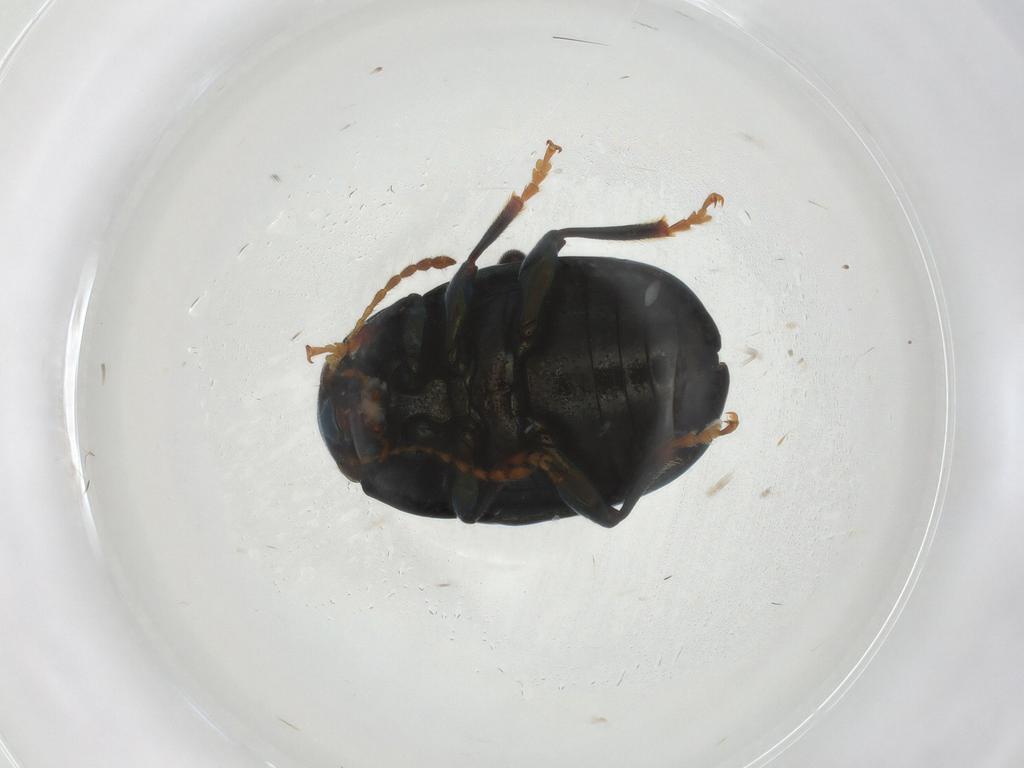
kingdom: Animalia
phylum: Arthropoda
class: Insecta
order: Coleoptera
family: Chrysomelidae
